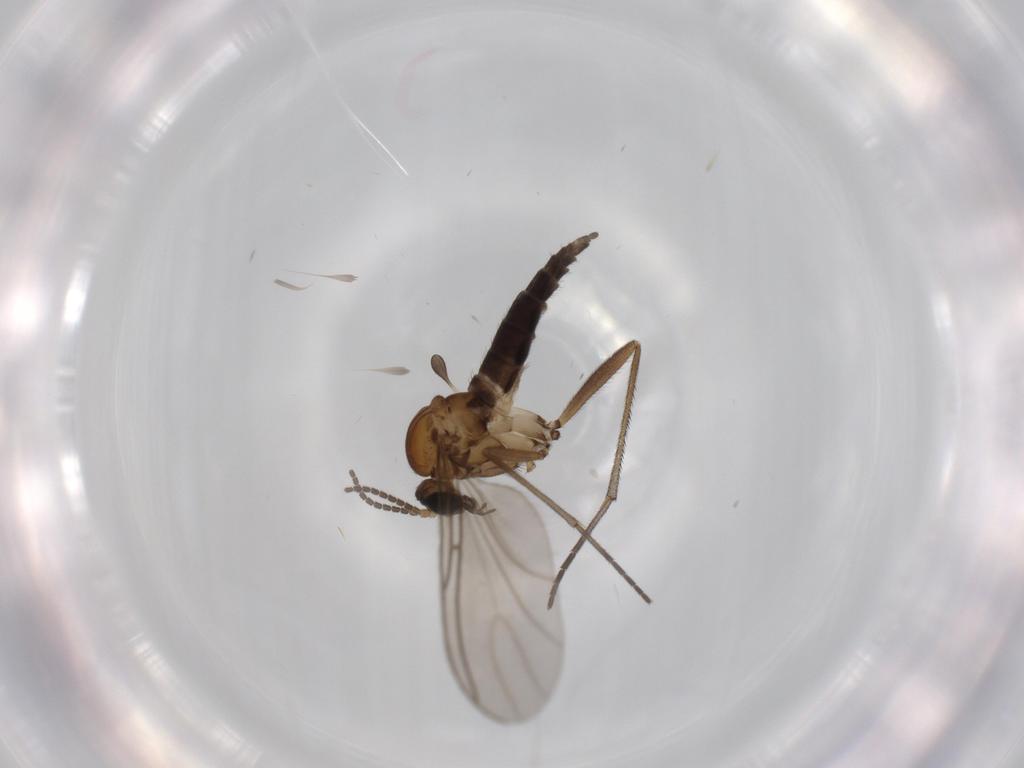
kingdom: Animalia
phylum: Arthropoda
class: Insecta
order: Diptera
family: Sciaridae
